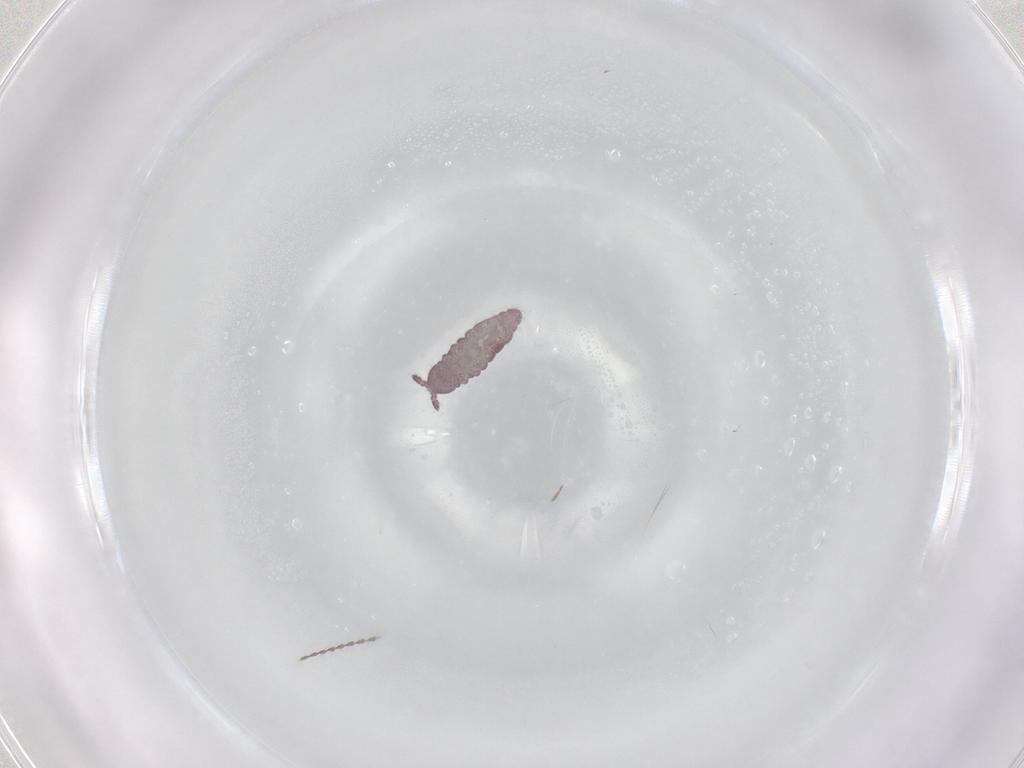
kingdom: Animalia
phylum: Arthropoda
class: Collembola
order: Poduromorpha
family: Hypogastruridae
